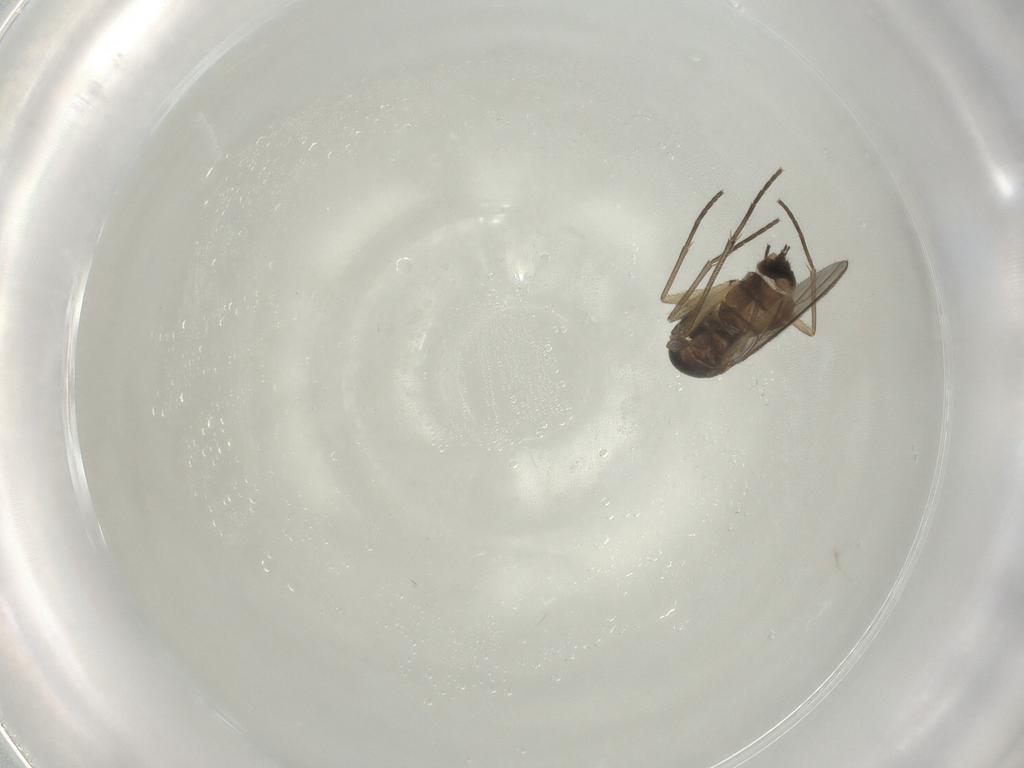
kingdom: Animalia
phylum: Arthropoda
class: Insecta
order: Diptera
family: Sciaridae
